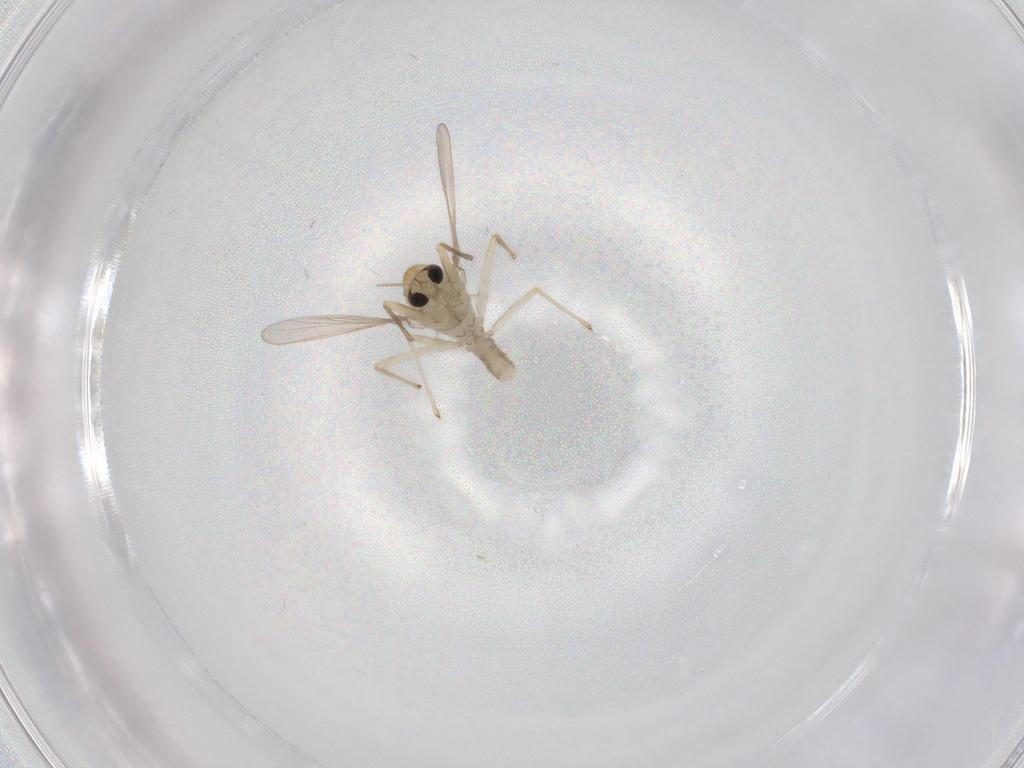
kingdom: Animalia
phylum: Arthropoda
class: Insecta
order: Diptera
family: Chironomidae
